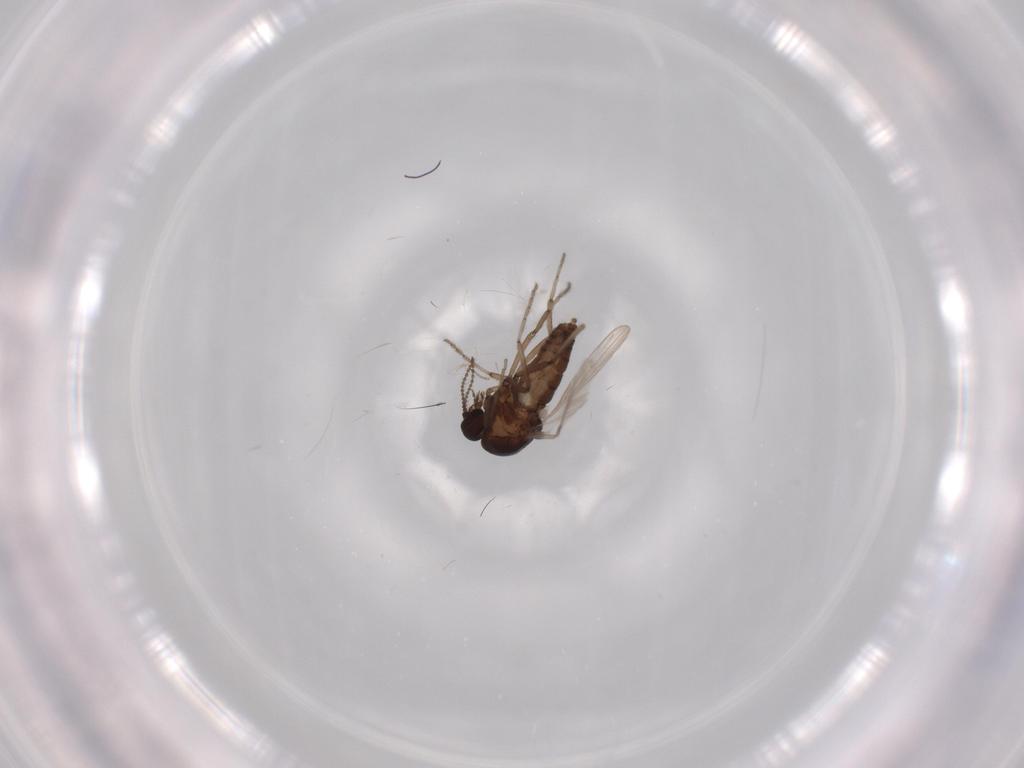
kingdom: Animalia
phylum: Arthropoda
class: Insecta
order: Diptera
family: Ceratopogonidae
